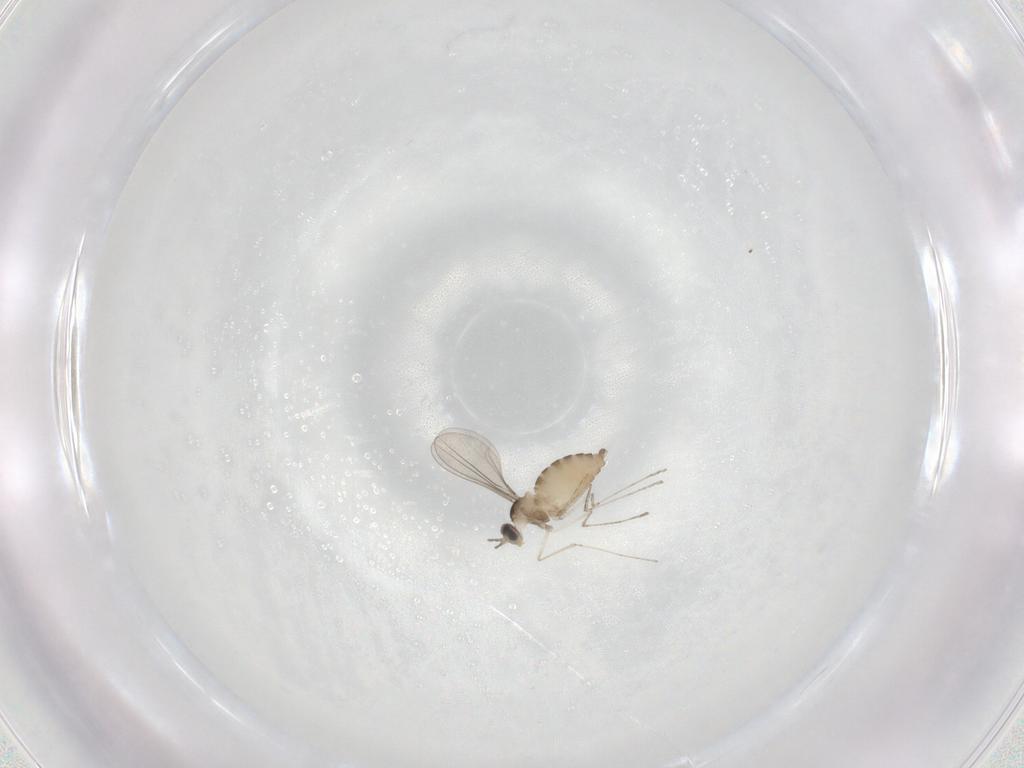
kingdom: Animalia
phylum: Arthropoda
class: Insecta
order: Diptera
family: Cecidomyiidae
